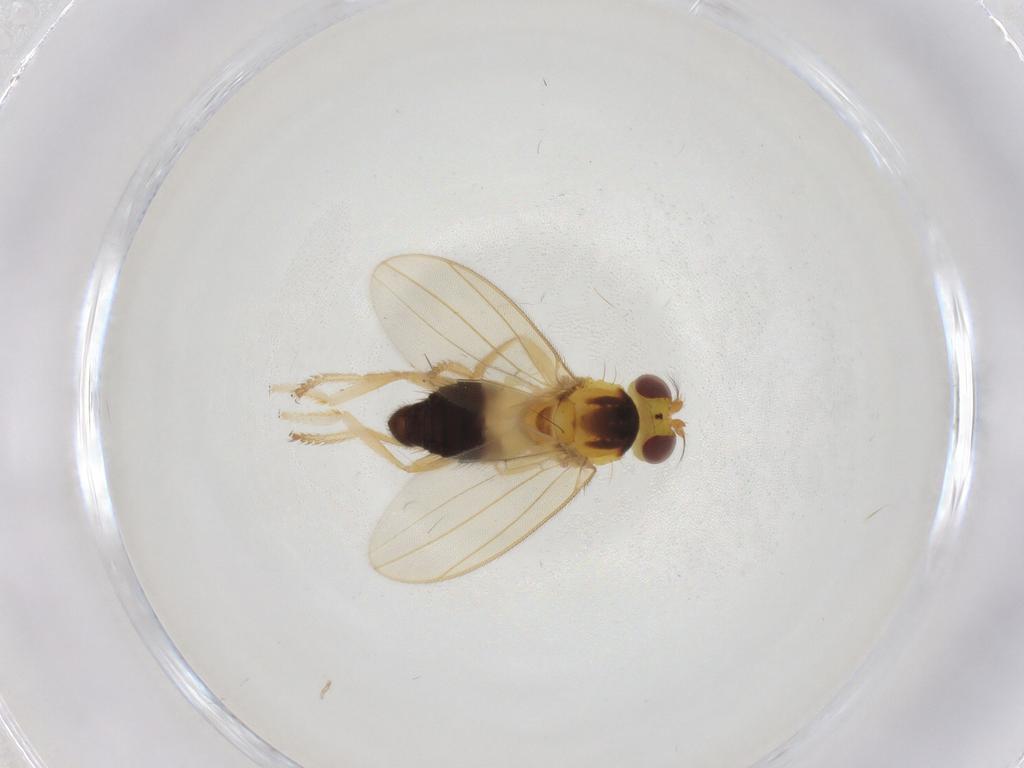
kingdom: Animalia
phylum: Arthropoda
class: Insecta
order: Diptera
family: Periscelididae
